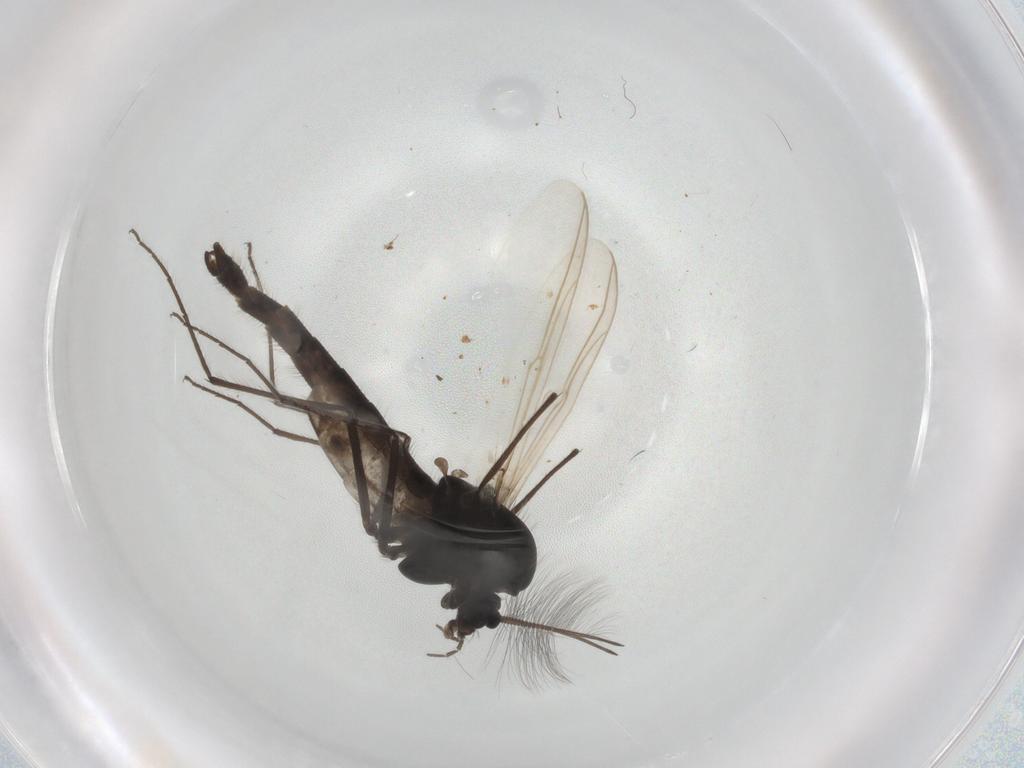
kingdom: Animalia
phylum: Arthropoda
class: Insecta
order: Diptera
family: Chironomidae
